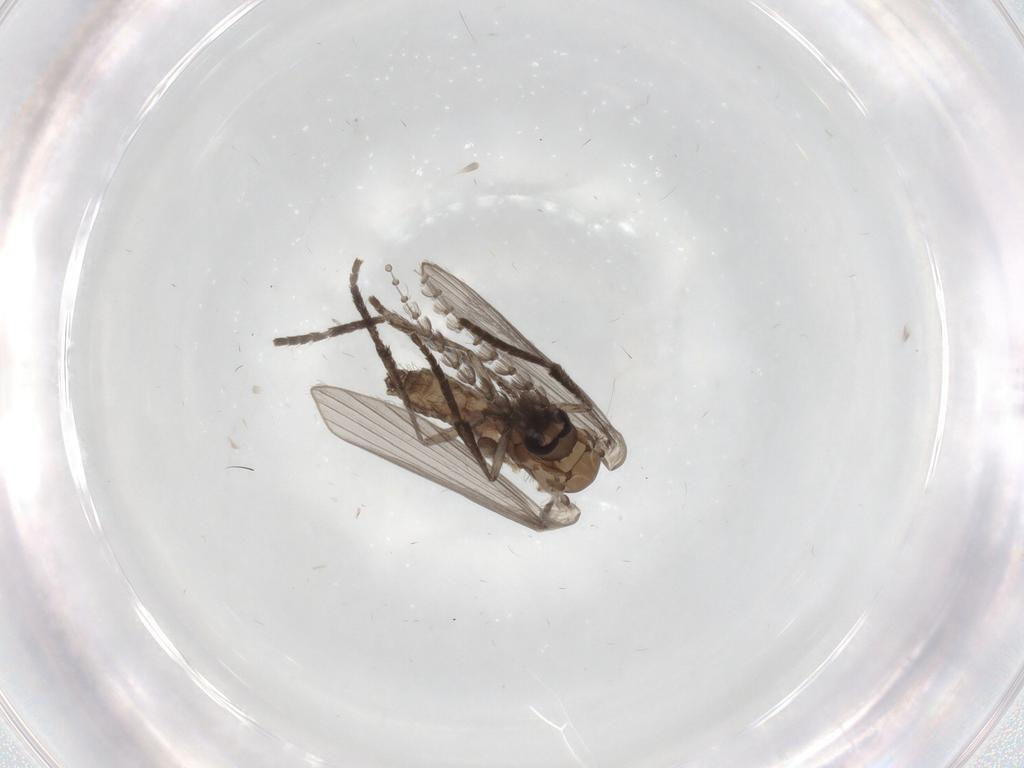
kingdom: Animalia
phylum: Arthropoda
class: Insecta
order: Diptera
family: Psychodidae
